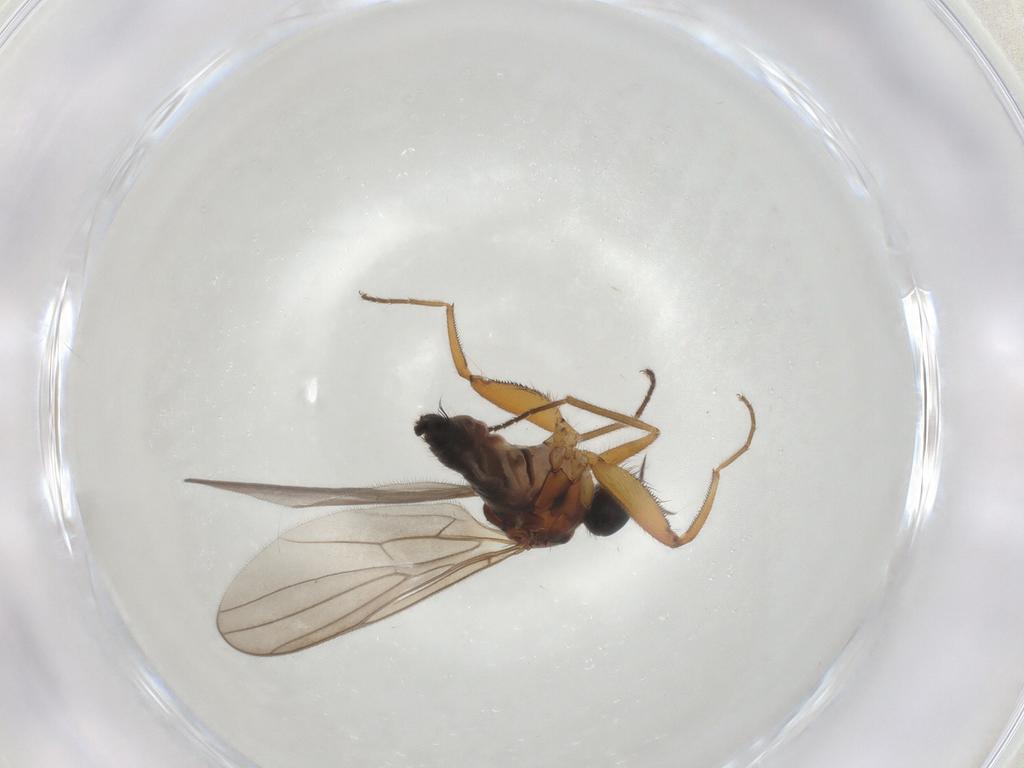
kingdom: Animalia
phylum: Arthropoda
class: Insecta
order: Diptera
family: Hybotidae
